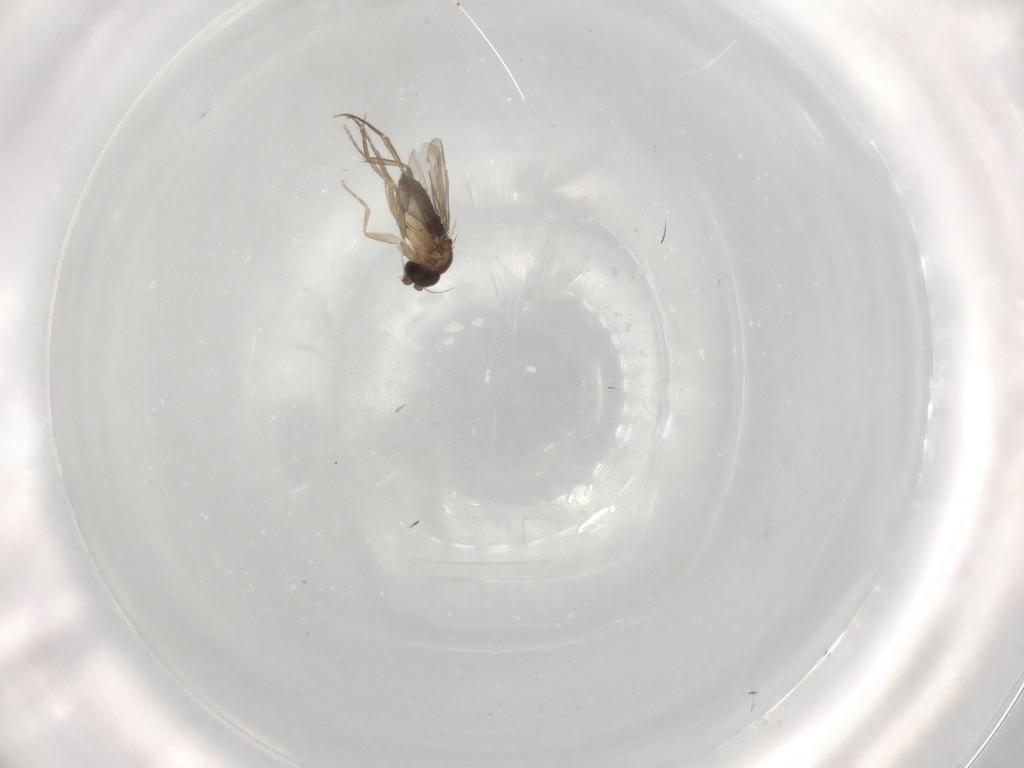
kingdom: Animalia
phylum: Arthropoda
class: Insecta
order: Diptera
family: Phoridae
